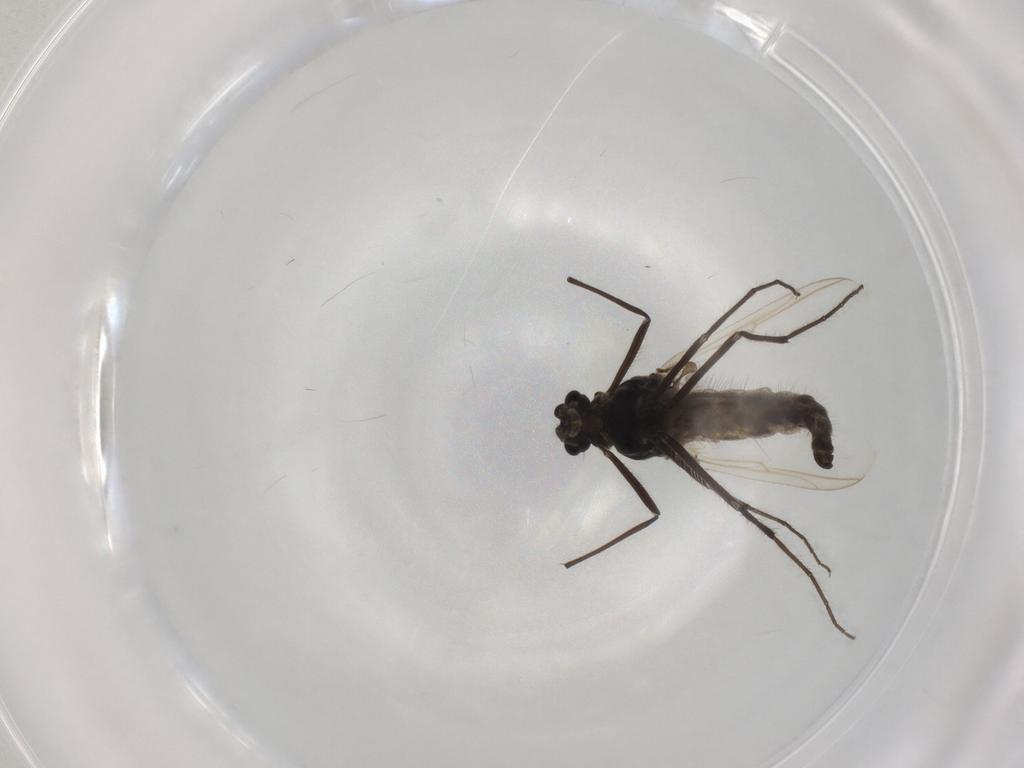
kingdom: Animalia
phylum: Arthropoda
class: Insecta
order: Diptera
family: Chironomidae
